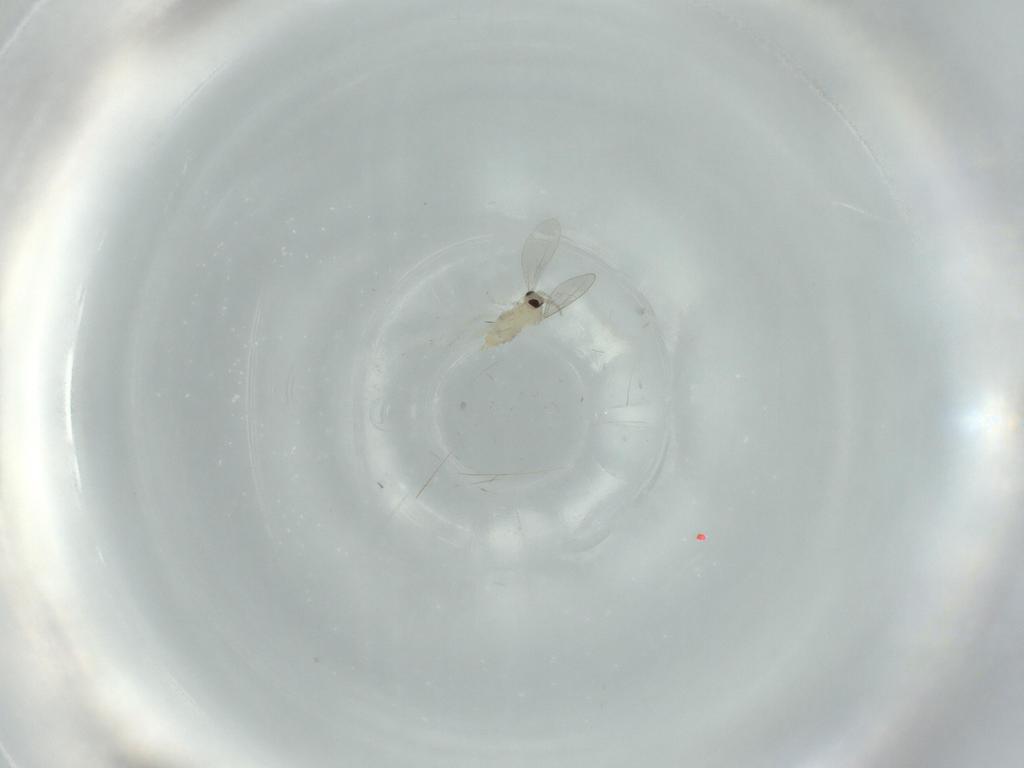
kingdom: Animalia
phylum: Arthropoda
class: Insecta
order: Diptera
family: Cecidomyiidae
